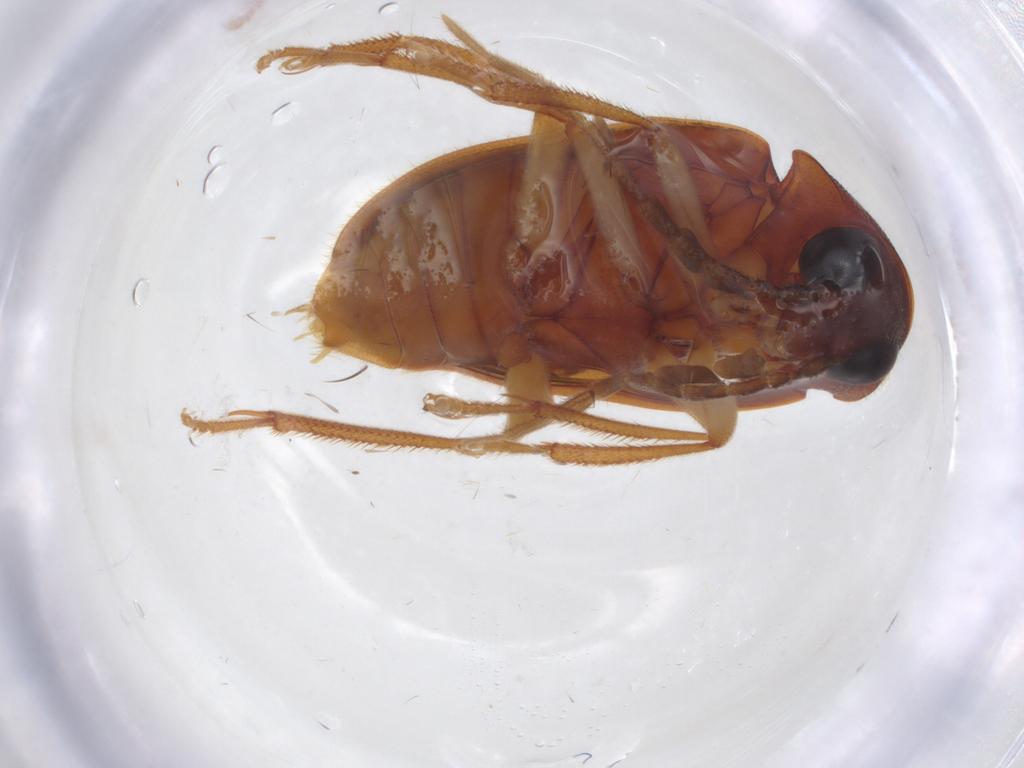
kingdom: Animalia
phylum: Arthropoda
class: Insecta
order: Coleoptera
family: Ptilodactylidae
